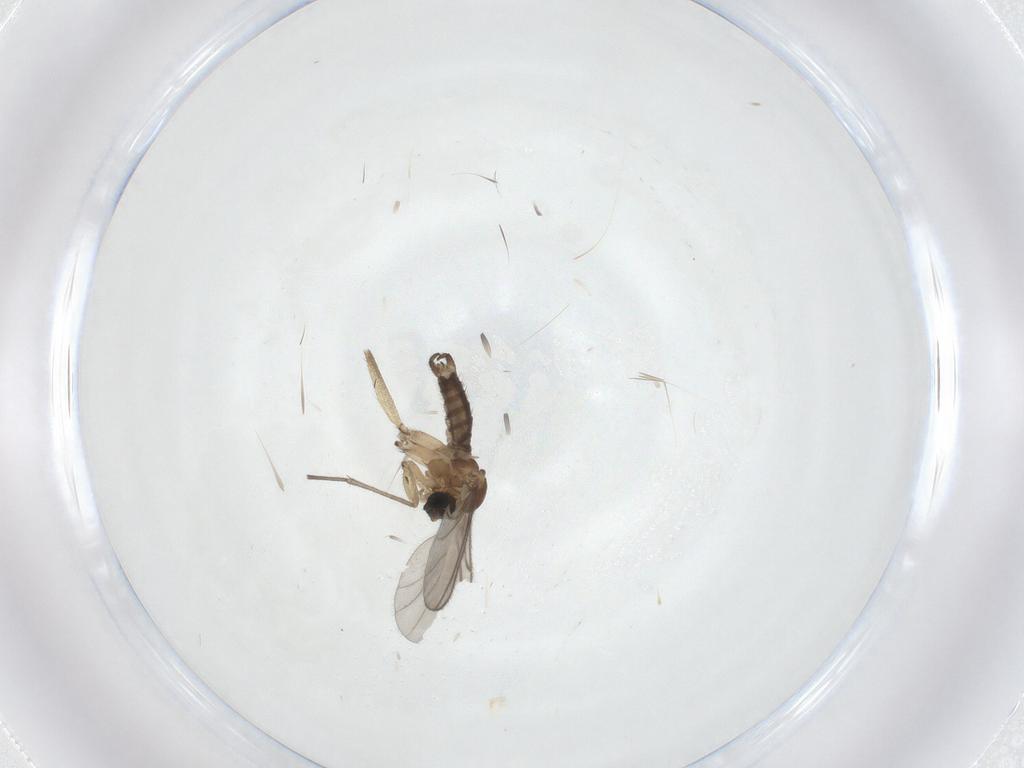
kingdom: Animalia
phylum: Arthropoda
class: Insecta
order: Diptera
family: Sciaridae
